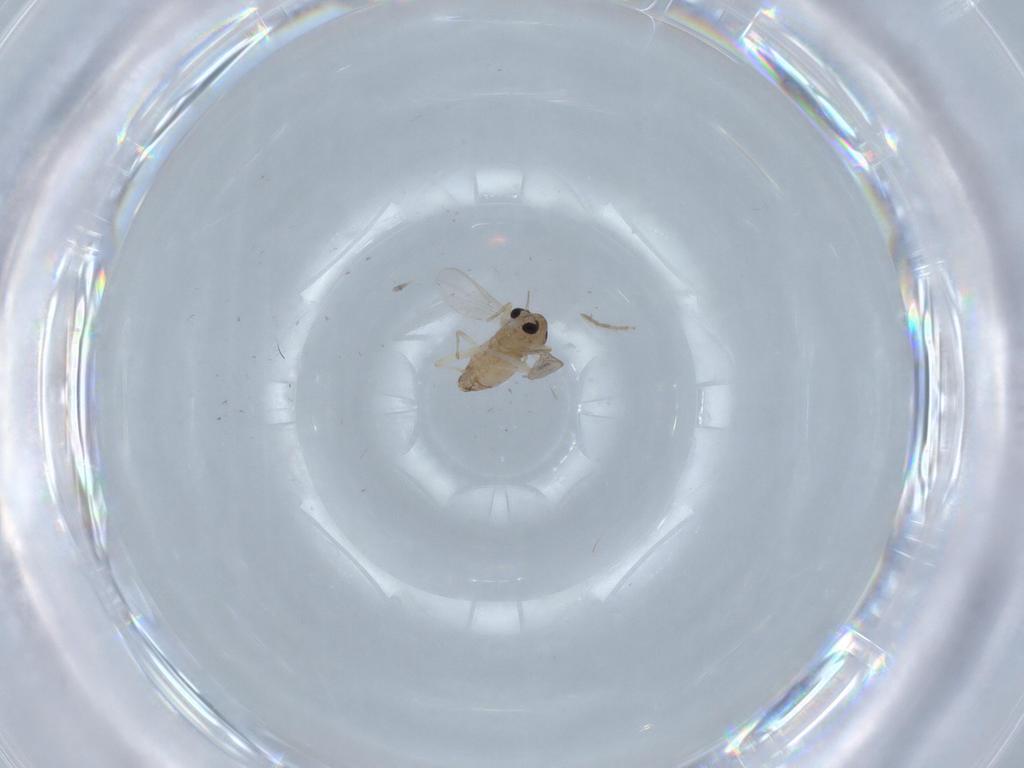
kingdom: Animalia
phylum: Arthropoda
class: Insecta
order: Diptera
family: Chironomidae
